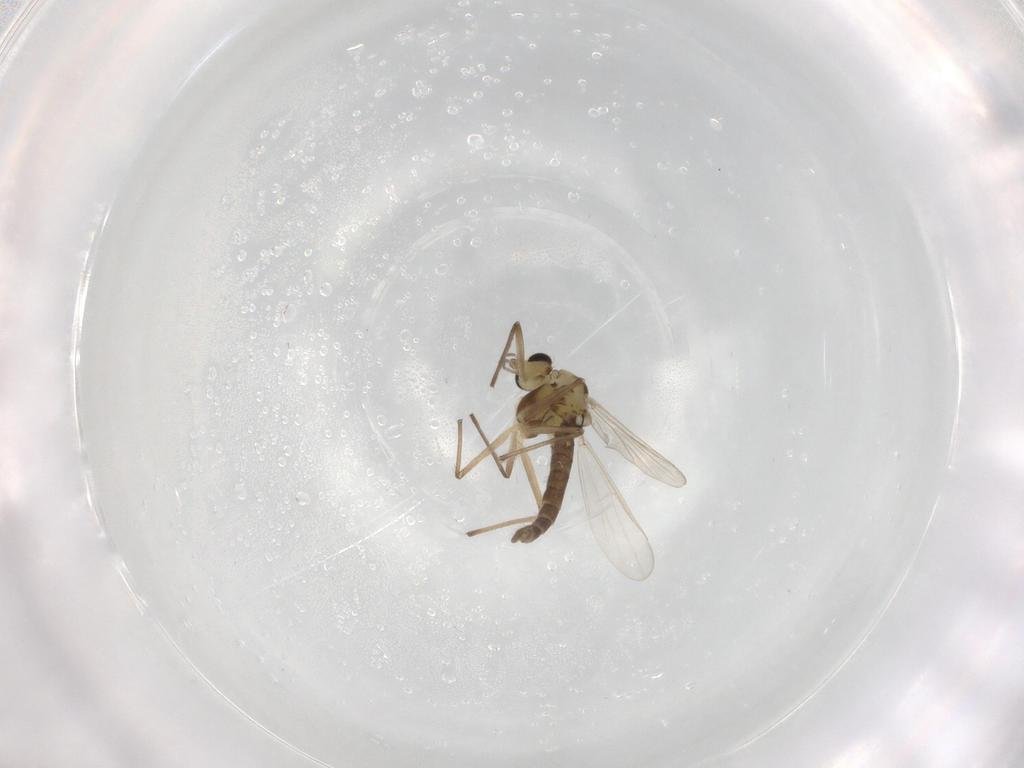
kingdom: Animalia
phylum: Arthropoda
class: Insecta
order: Diptera
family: Chironomidae
